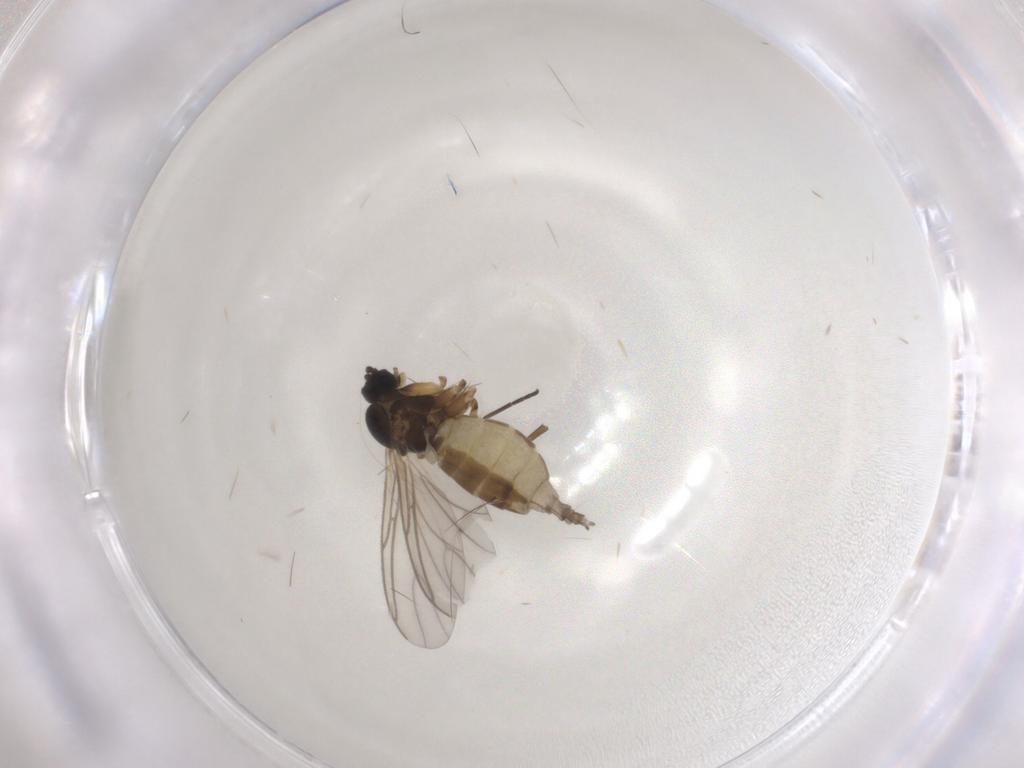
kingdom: Animalia
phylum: Arthropoda
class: Insecta
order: Diptera
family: Sciaridae
